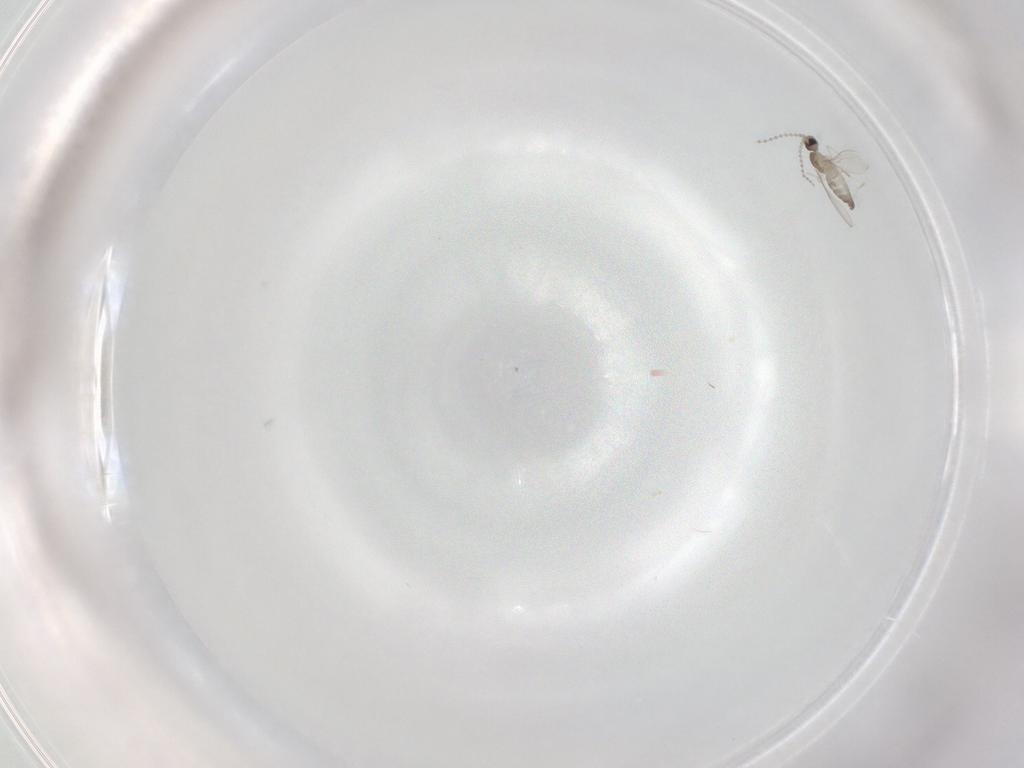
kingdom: Animalia
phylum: Arthropoda
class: Insecta
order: Diptera
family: Cecidomyiidae
